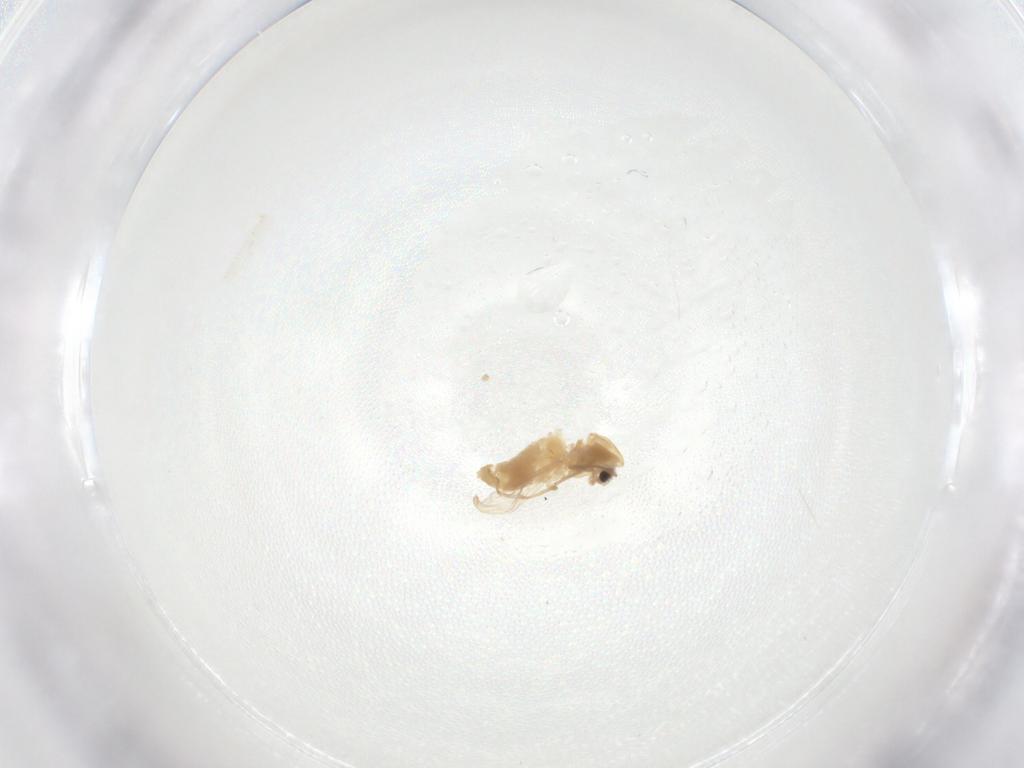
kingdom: Animalia
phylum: Arthropoda
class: Insecta
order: Diptera
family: Chironomidae
